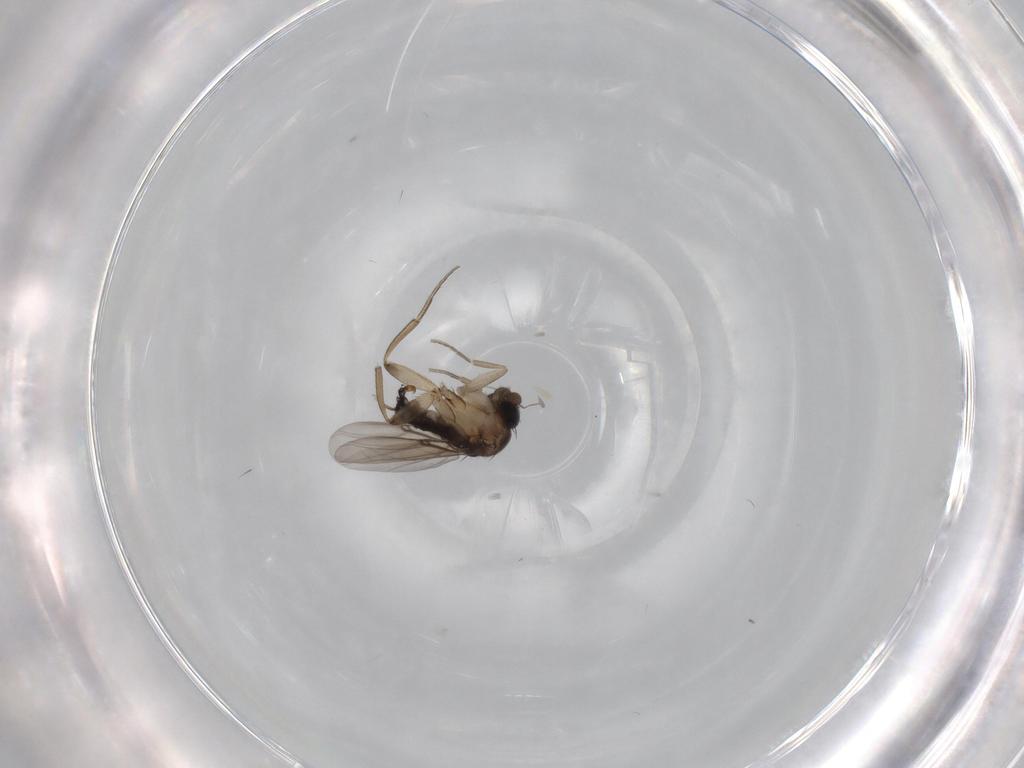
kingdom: Animalia
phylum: Arthropoda
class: Insecta
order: Diptera
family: Phoridae
